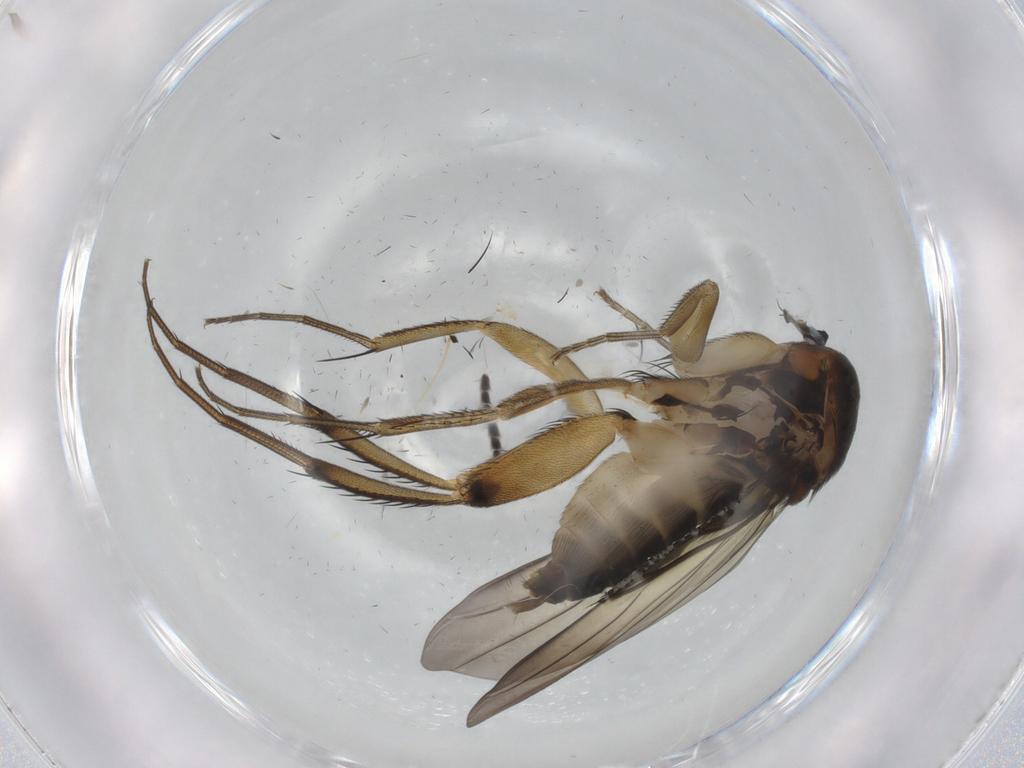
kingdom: Animalia
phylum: Arthropoda
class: Insecta
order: Diptera
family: Phoridae
